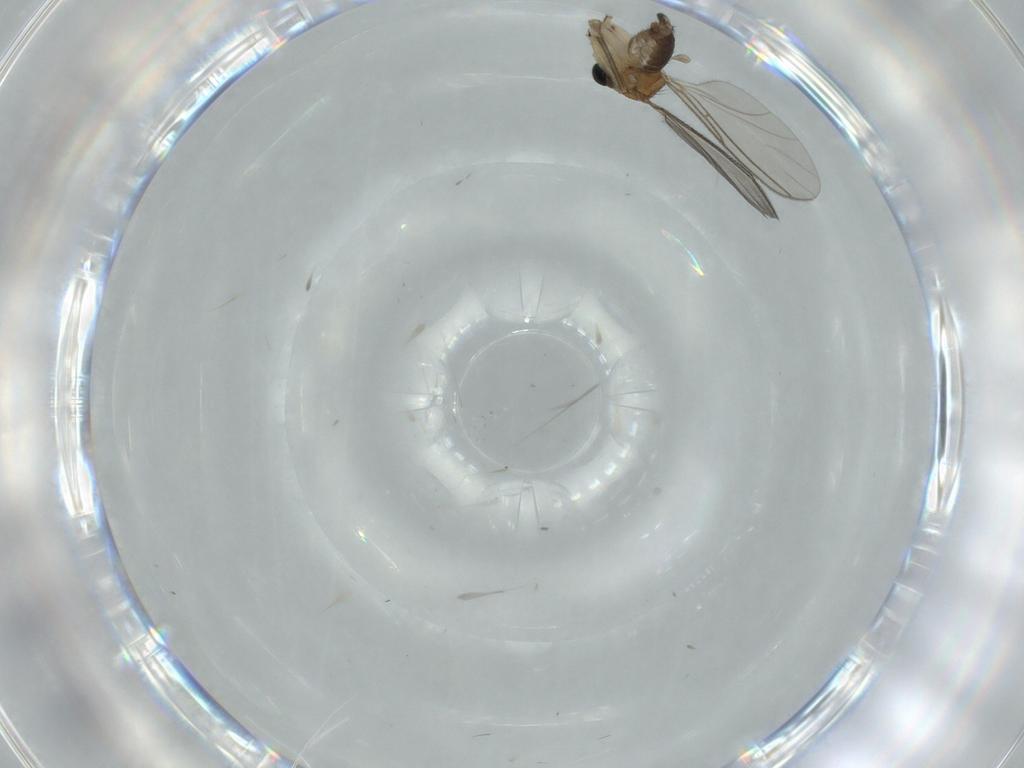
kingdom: Animalia
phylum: Arthropoda
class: Insecta
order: Diptera
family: Sciaridae
